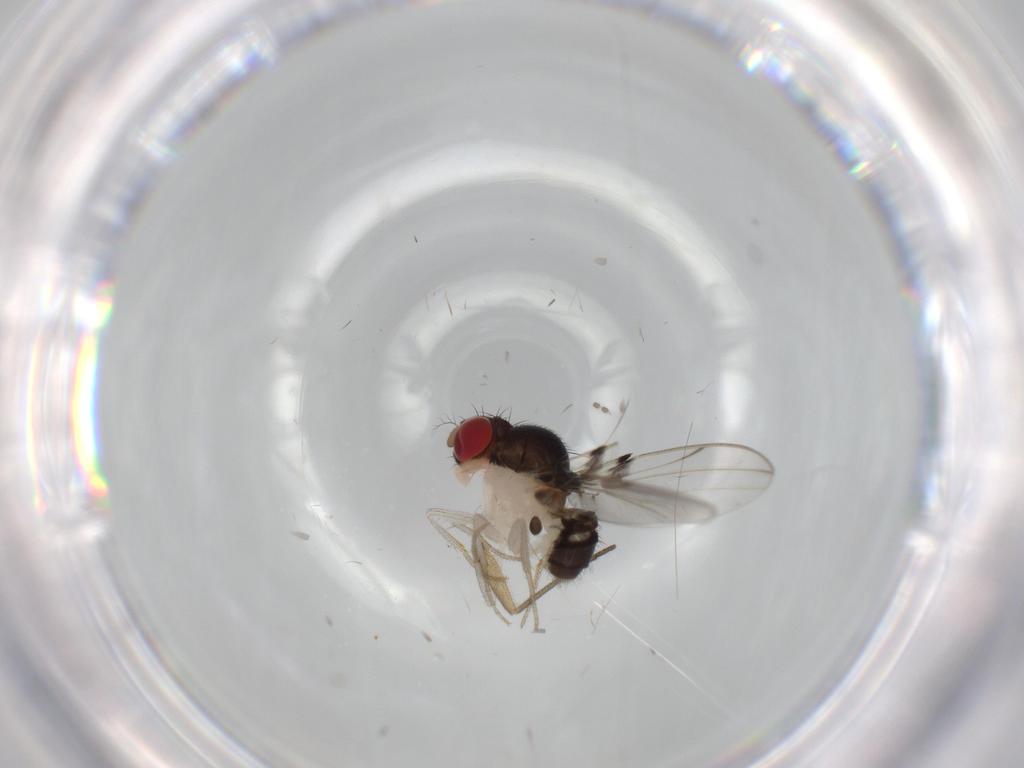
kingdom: Animalia
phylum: Arthropoda
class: Insecta
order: Diptera
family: Drosophilidae
